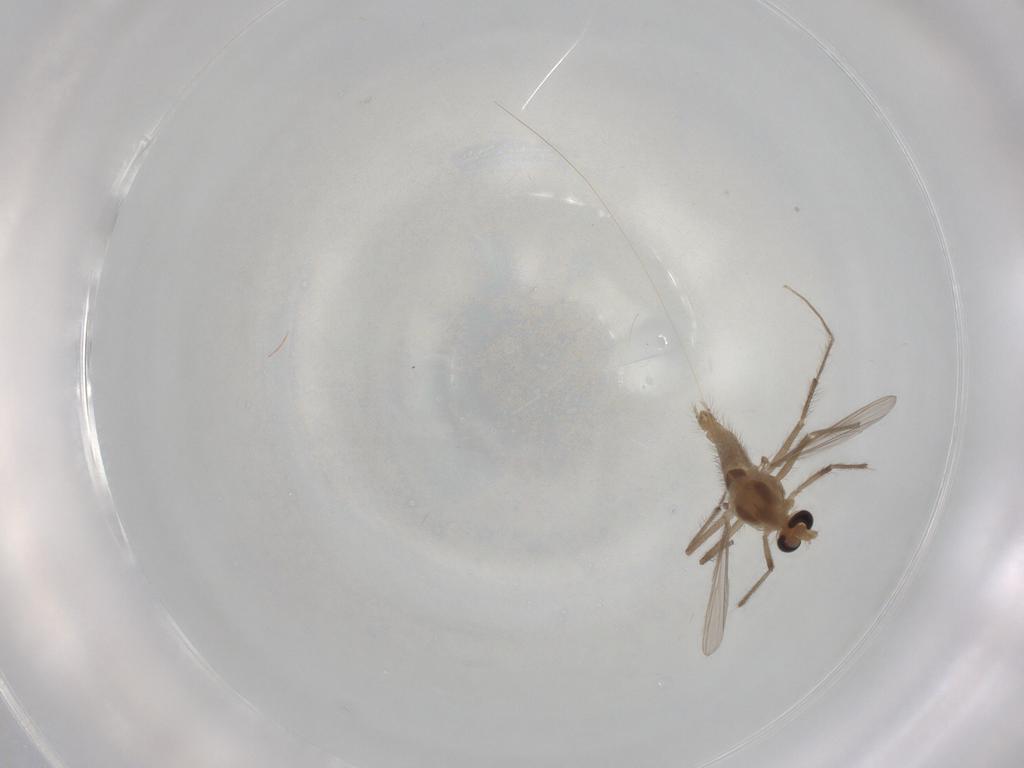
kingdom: Animalia
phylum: Arthropoda
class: Insecta
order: Diptera
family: Chironomidae
